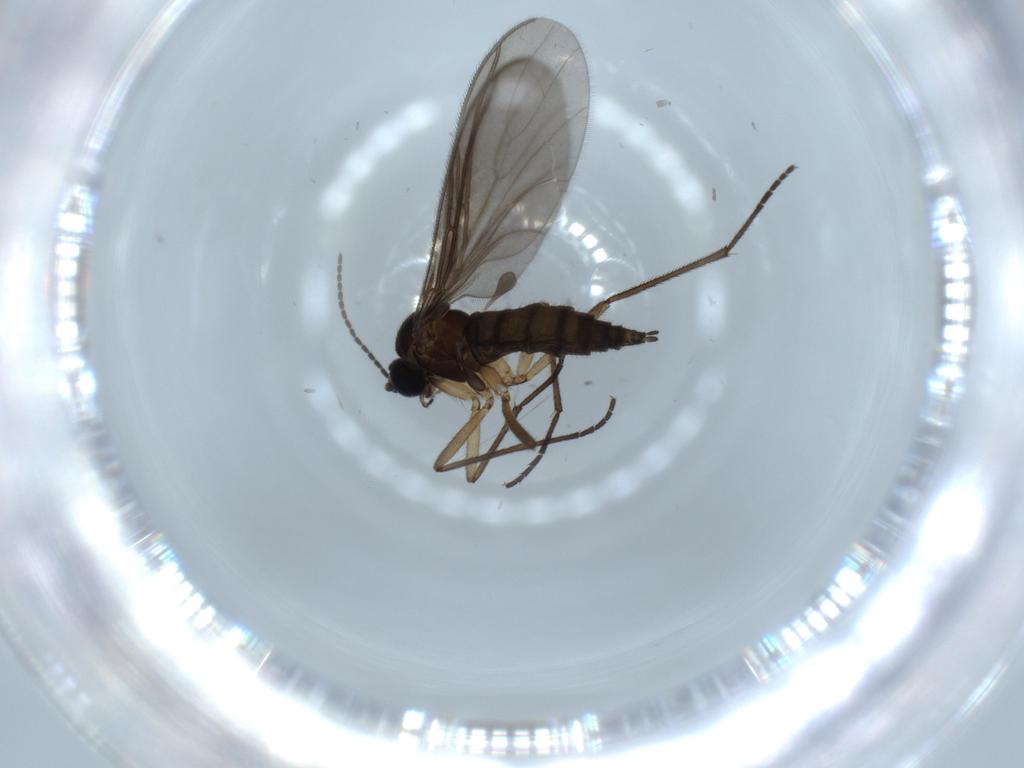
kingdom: Animalia
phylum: Arthropoda
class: Insecta
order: Diptera
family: Sciaridae
